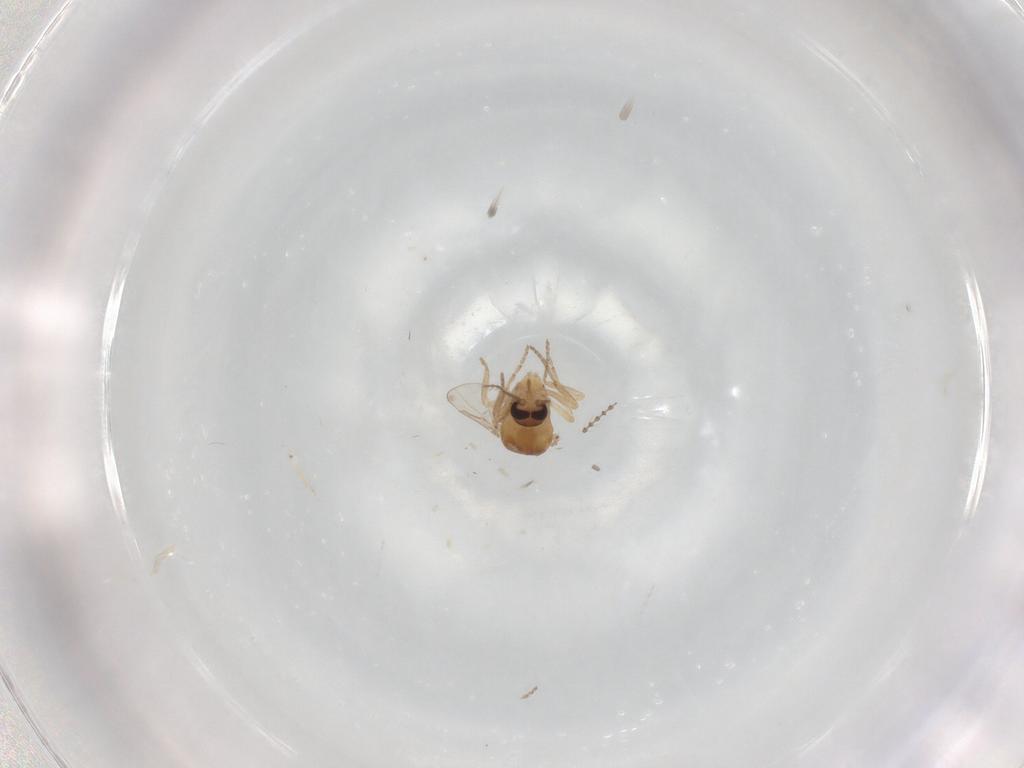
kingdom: Animalia
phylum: Arthropoda
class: Insecta
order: Diptera
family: Ceratopogonidae
